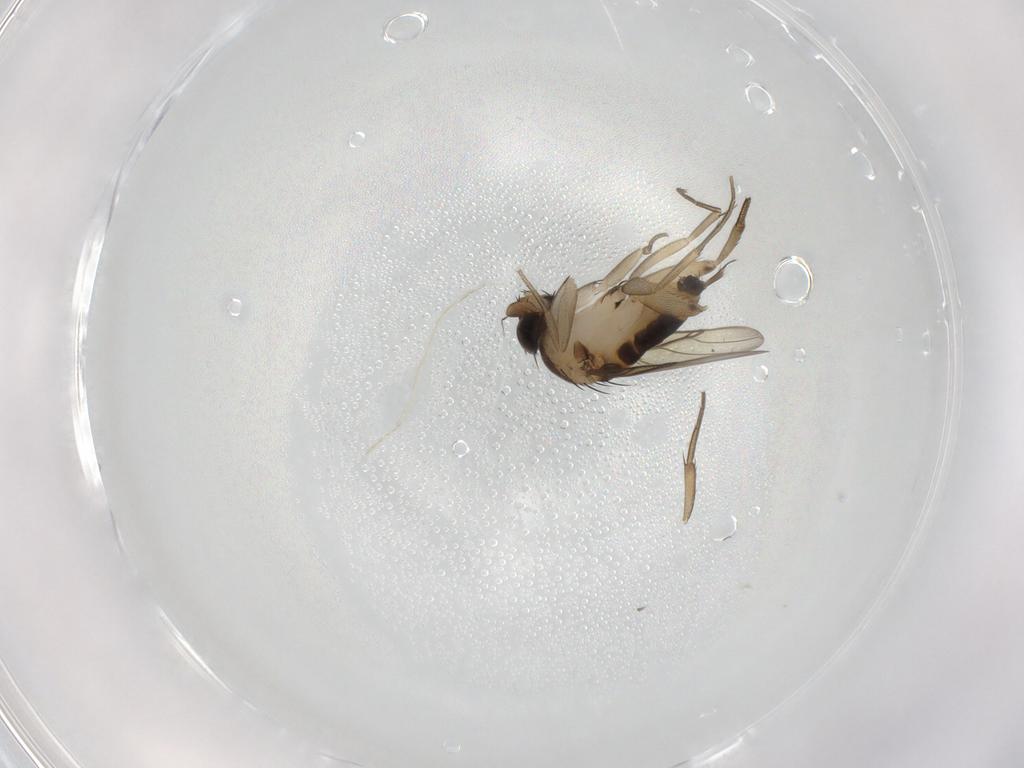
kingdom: Animalia
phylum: Arthropoda
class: Insecta
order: Diptera
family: Phoridae
